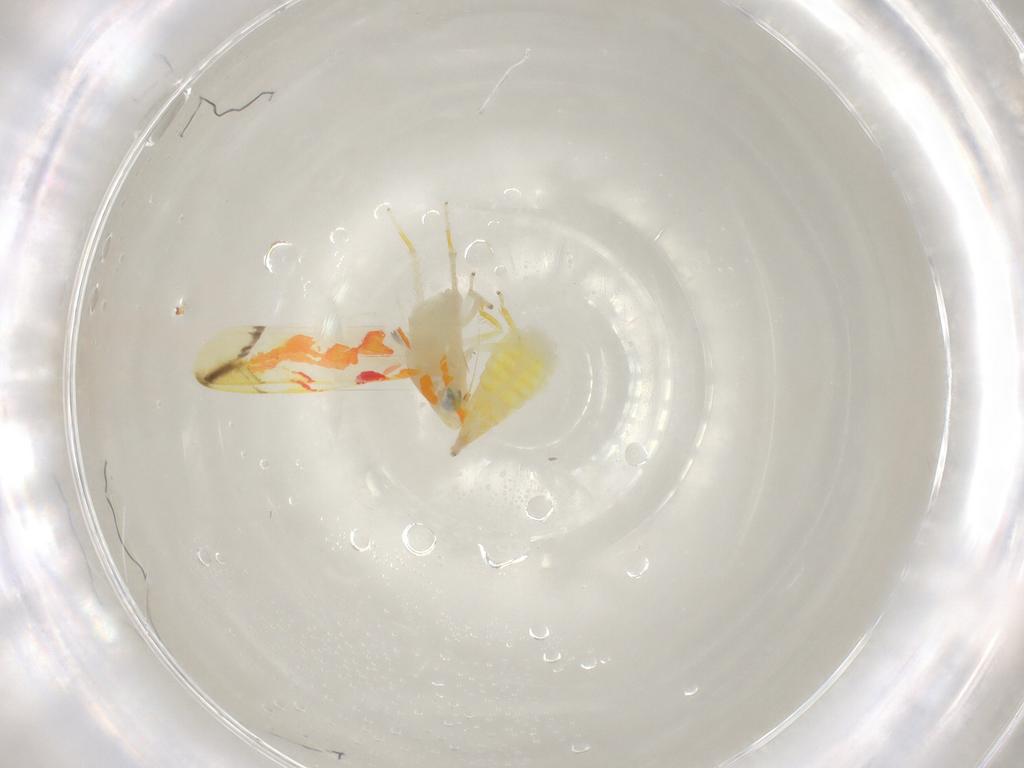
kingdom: Animalia
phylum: Arthropoda
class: Insecta
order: Hemiptera
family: Cicadellidae
